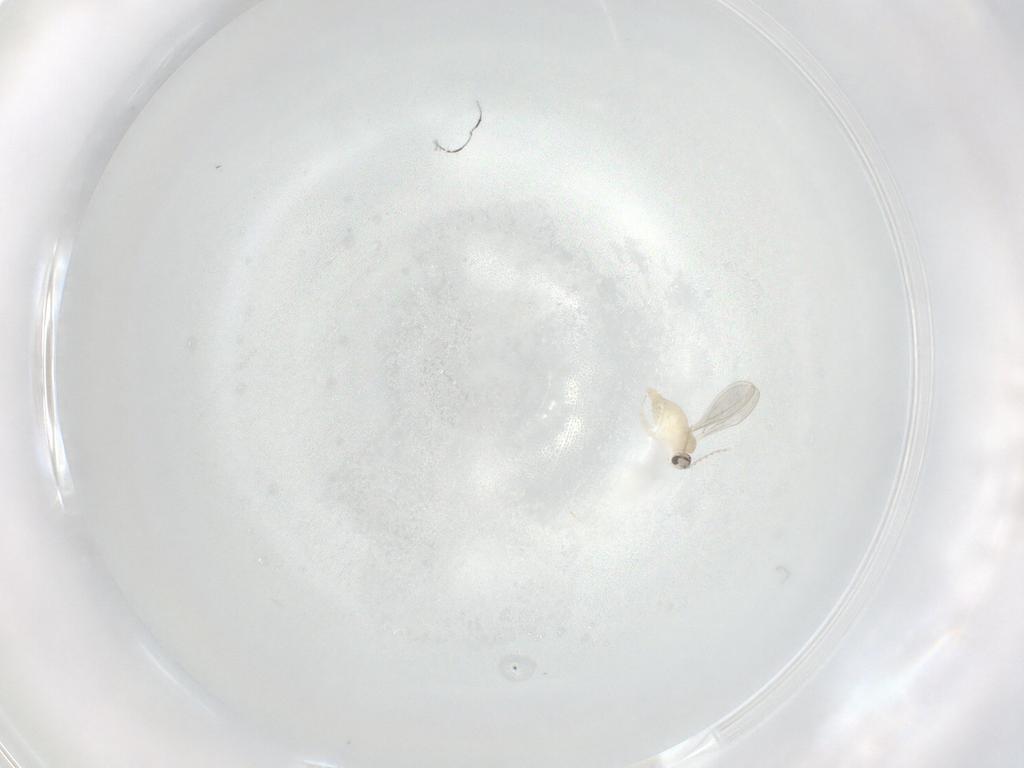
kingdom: Animalia
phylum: Arthropoda
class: Insecta
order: Diptera
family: Cecidomyiidae
